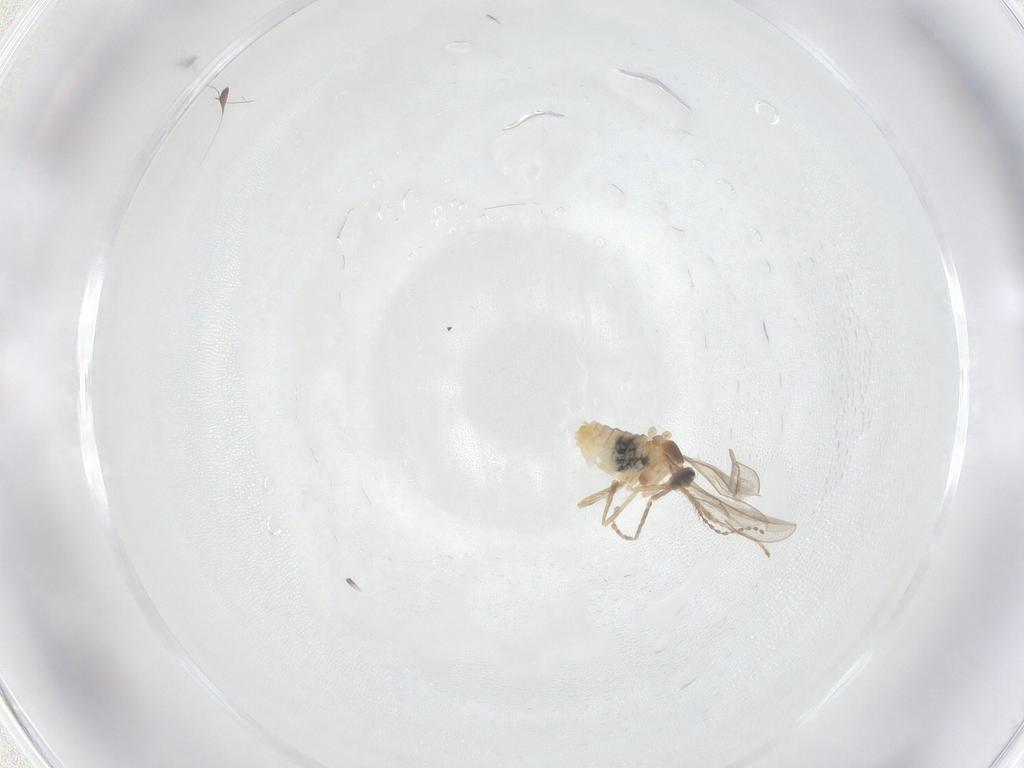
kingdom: Animalia
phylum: Arthropoda
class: Insecta
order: Diptera
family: Cecidomyiidae
